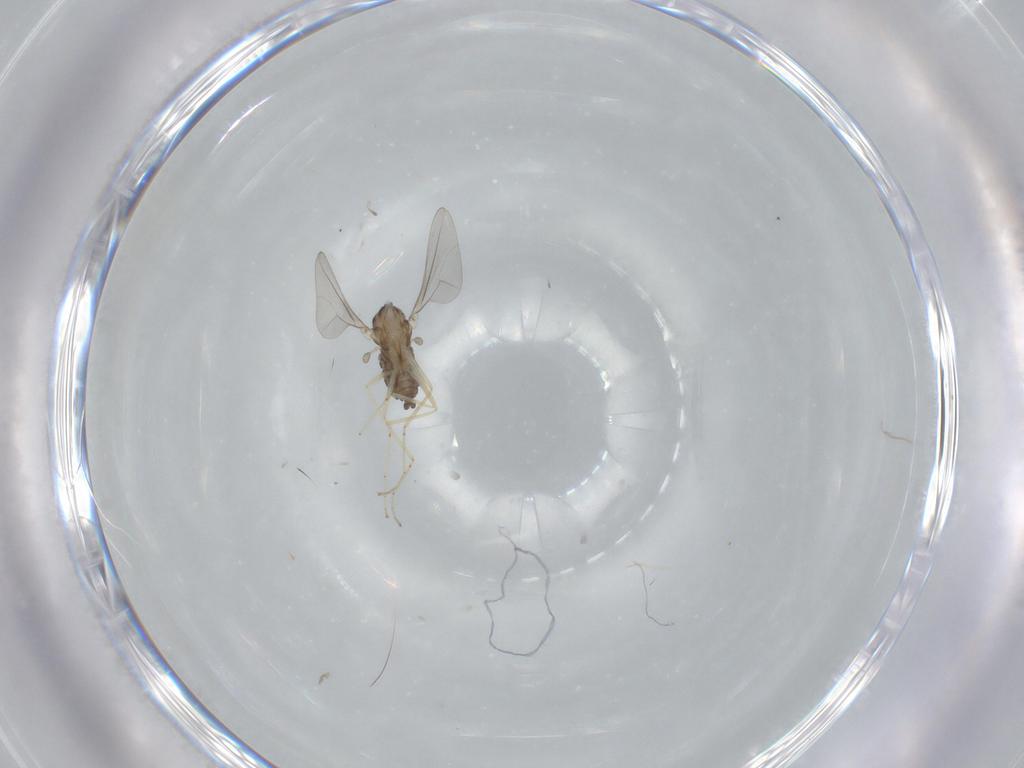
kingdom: Animalia
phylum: Arthropoda
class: Insecta
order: Diptera
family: Cecidomyiidae
